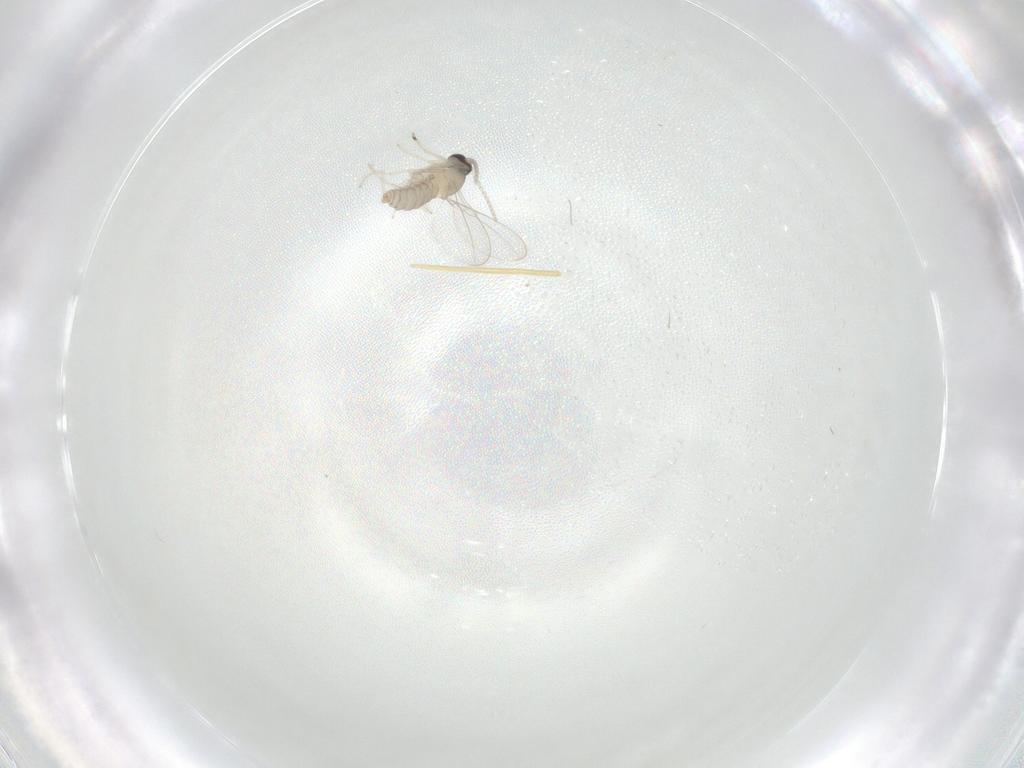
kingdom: Animalia
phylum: Arthropoda
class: Insecta
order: Diptera
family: Cecidomyiidae
